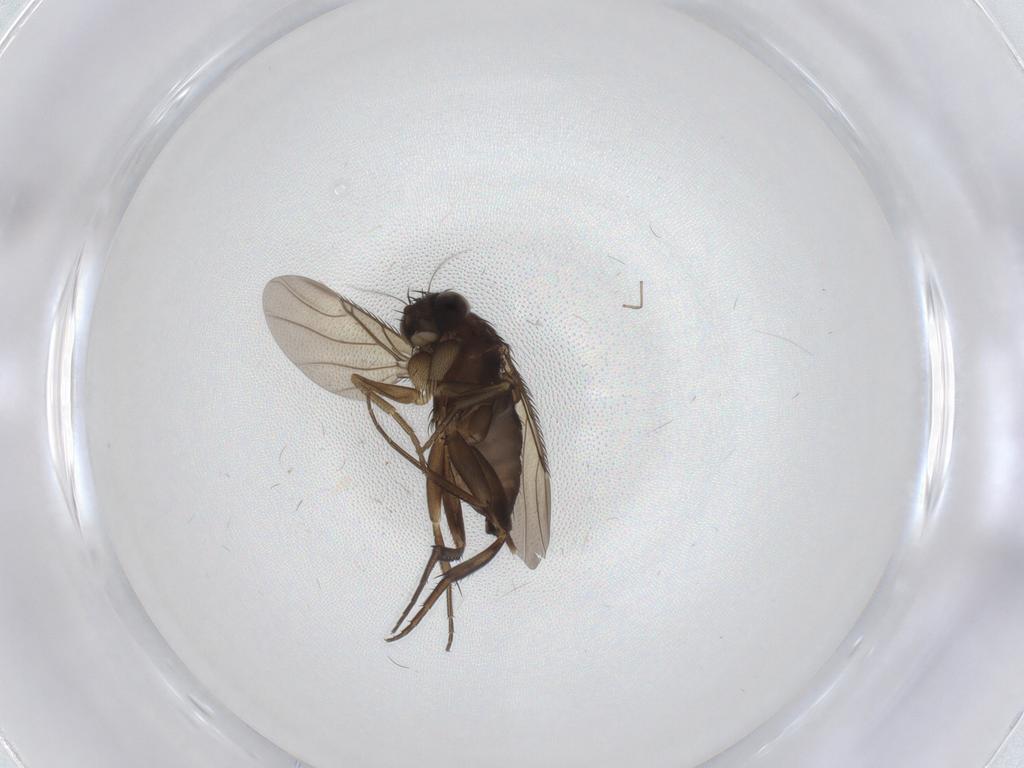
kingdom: Animalia
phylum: Arthropoda
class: Insecta
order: Diptera
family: Phoridae
